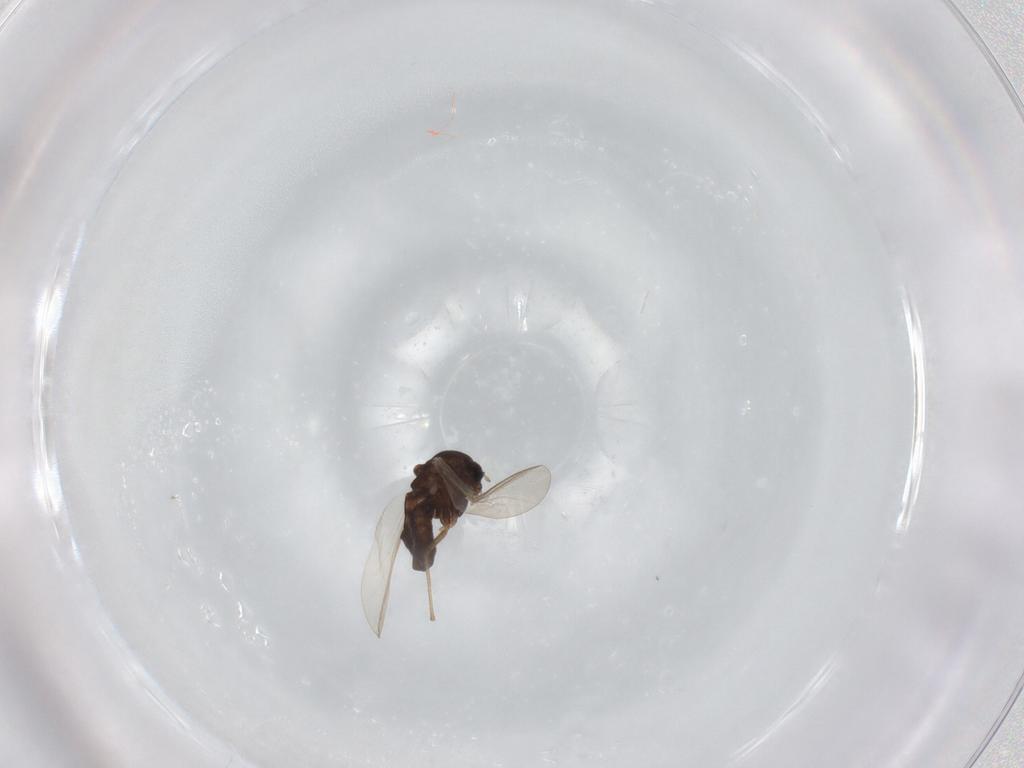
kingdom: Animalia
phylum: Arthropoda
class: Insecta
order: Diptera
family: Chironomidae
